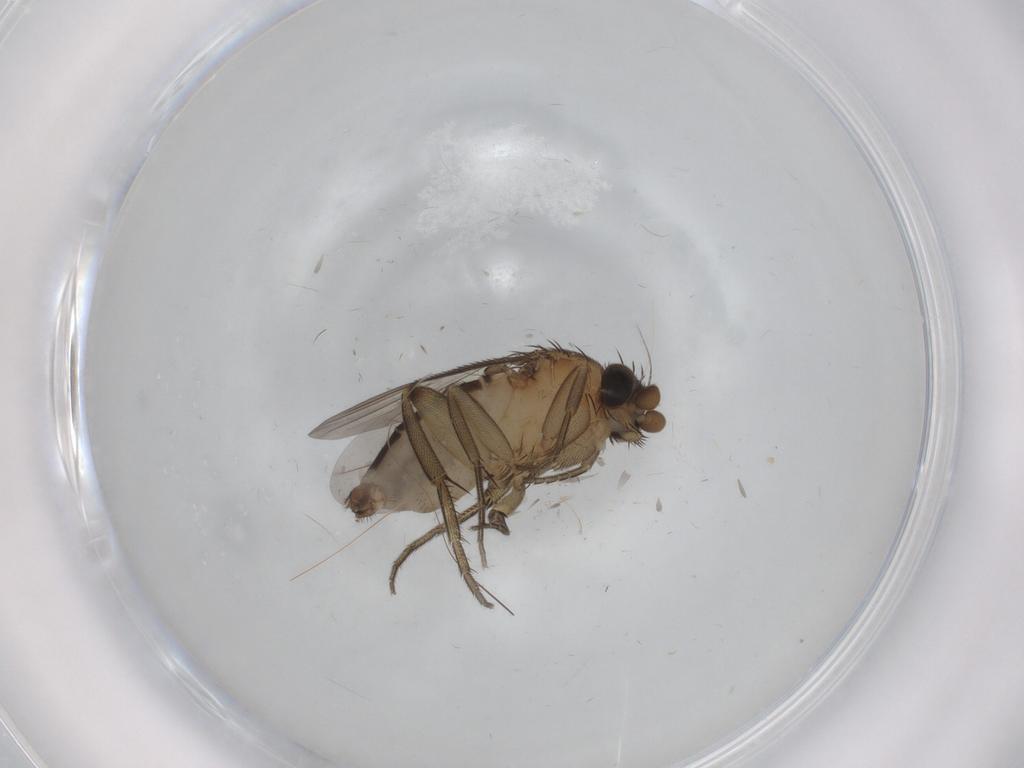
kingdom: Animalia
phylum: Arthropoda
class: Insecta
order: Diptera
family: Phoridae
